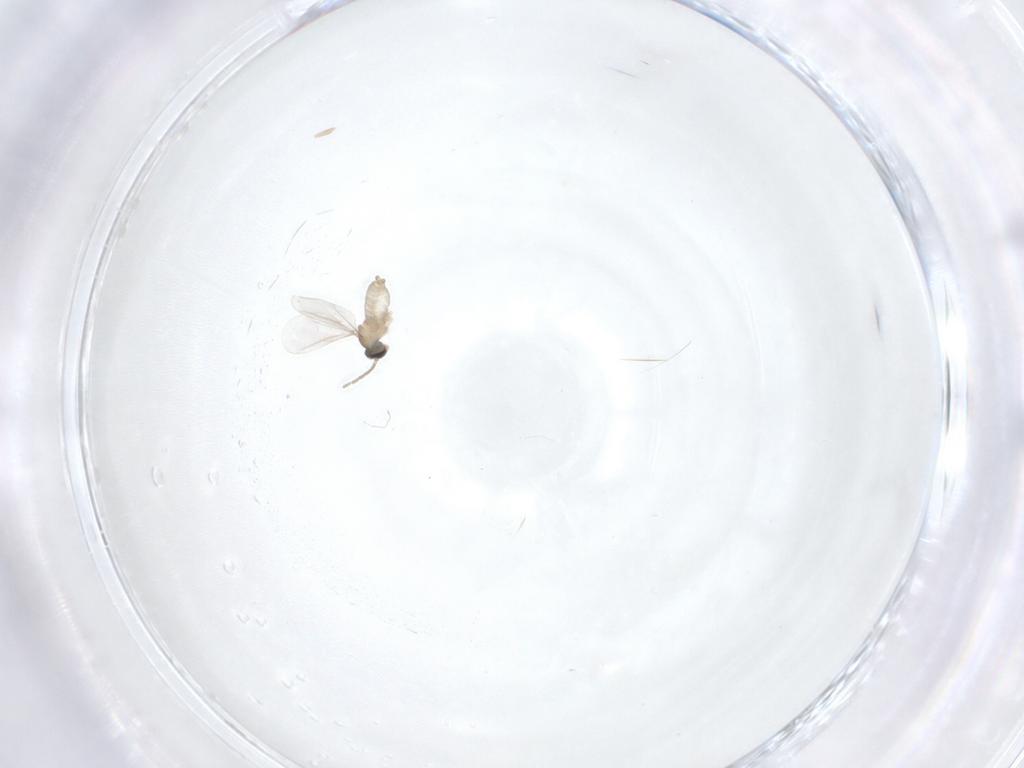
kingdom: Animalia
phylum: Arthropoda
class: Insecta
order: Diptera
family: Cecidomyiidae
